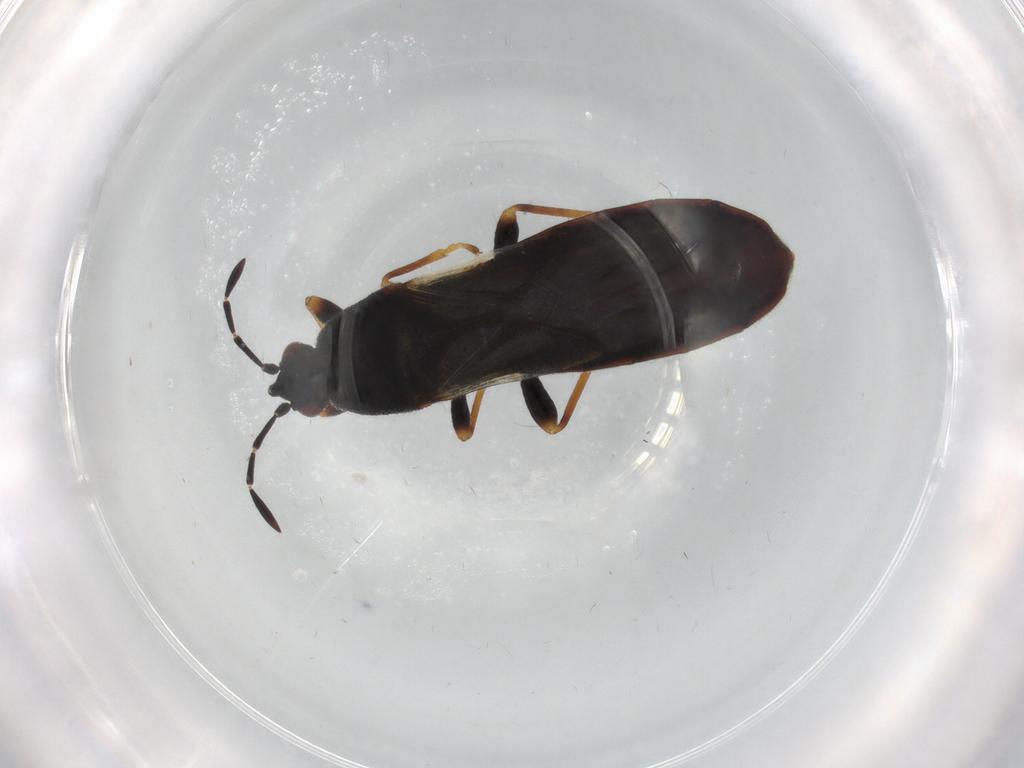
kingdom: Animalia
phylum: Arthropoda
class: Insecta
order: Hemiptera
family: Blissidae
